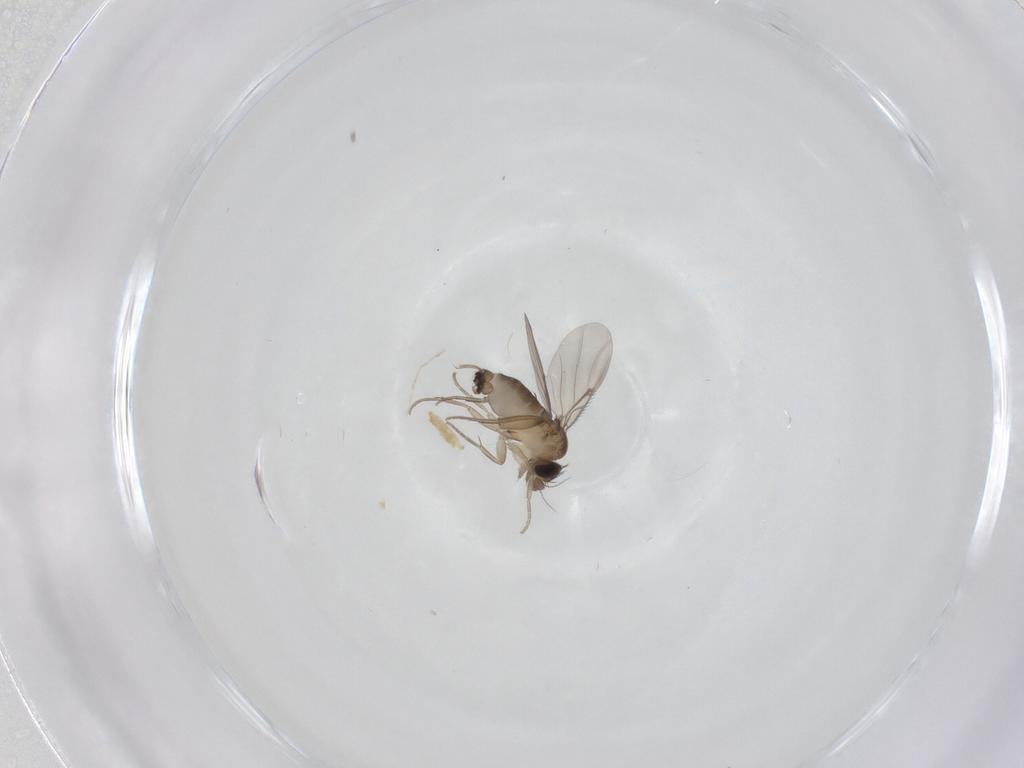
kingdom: Animalia
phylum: Arthropoda
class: Insecta
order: Diptera
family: Phoridae
